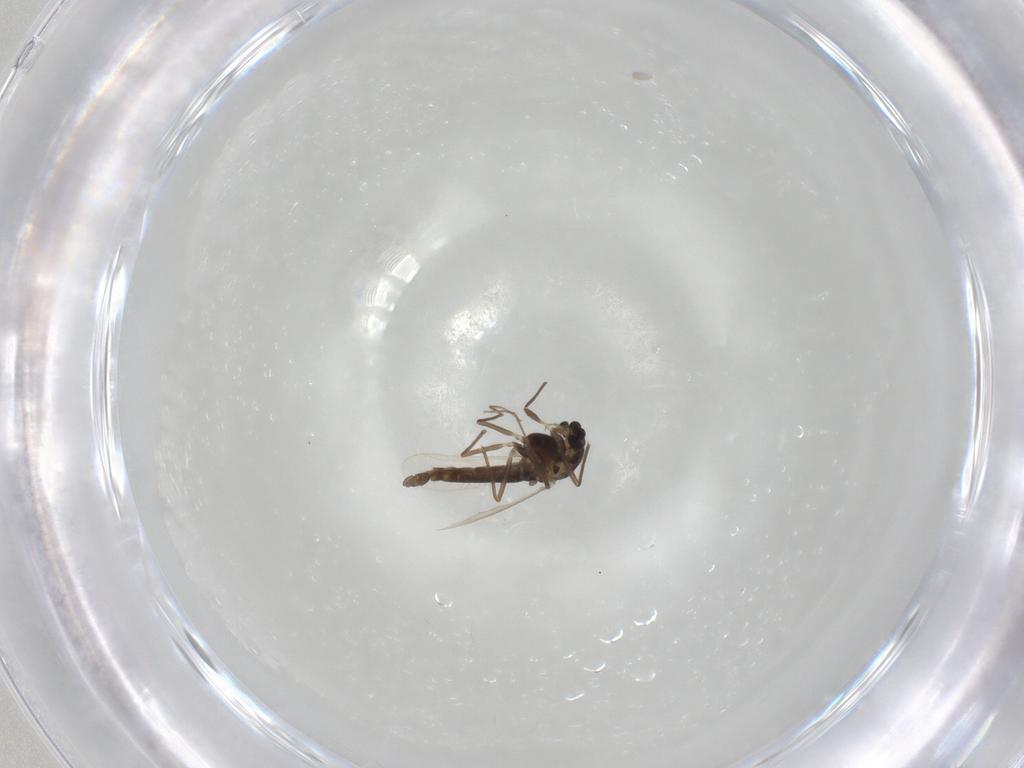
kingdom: Animalia
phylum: Arthropoda
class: Insecta
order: Diptera
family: Chironomidae
